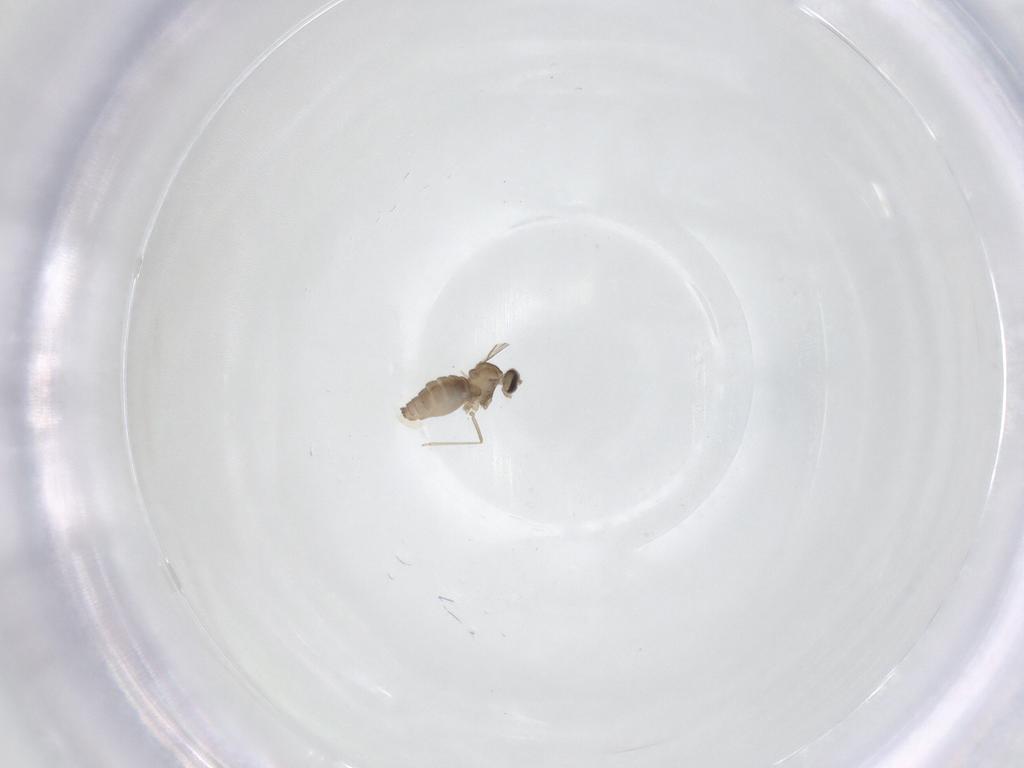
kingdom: Animalia
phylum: Arthropoda
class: Insecta
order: Diptera
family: Cecidomyiidae
